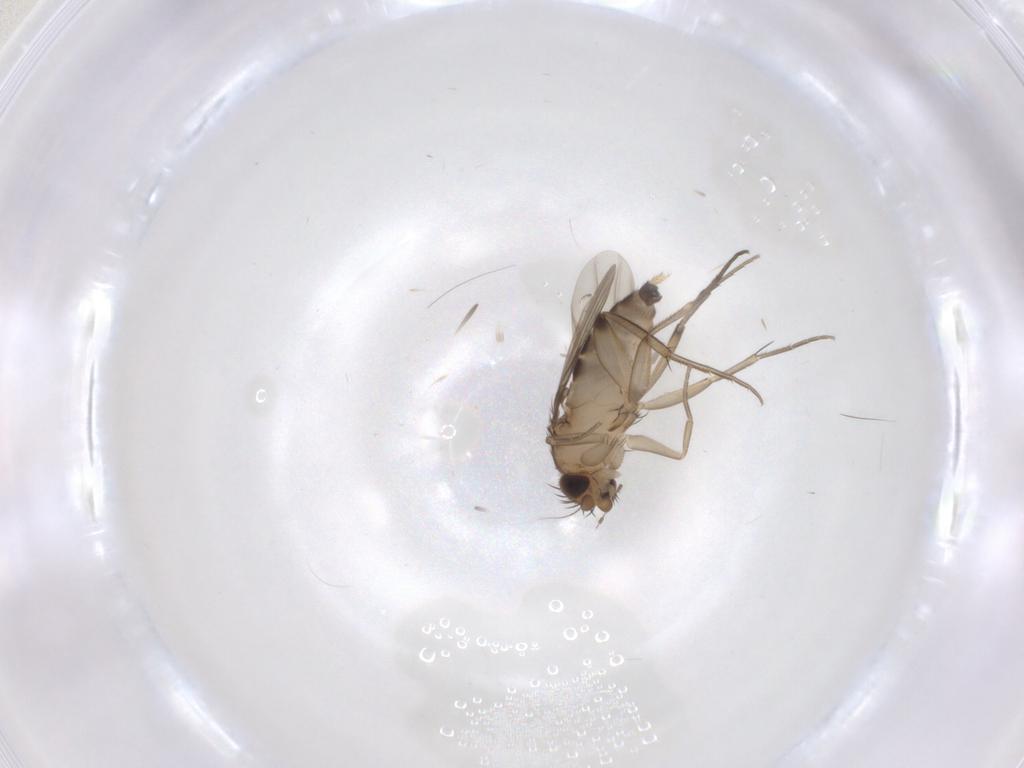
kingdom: Animalia
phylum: Arthropoda
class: Insecta
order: Diptera
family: Cecidomyiidae
